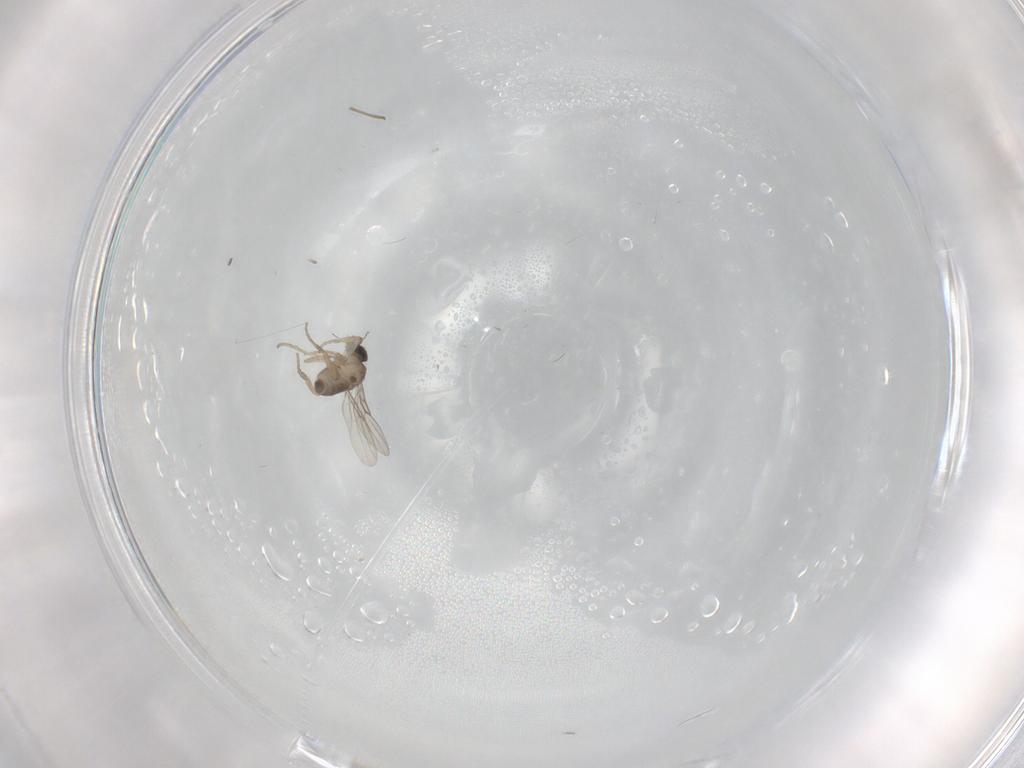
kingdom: Animalia
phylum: Arthropoda
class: Insecta
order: Diptera
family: Phoridae
